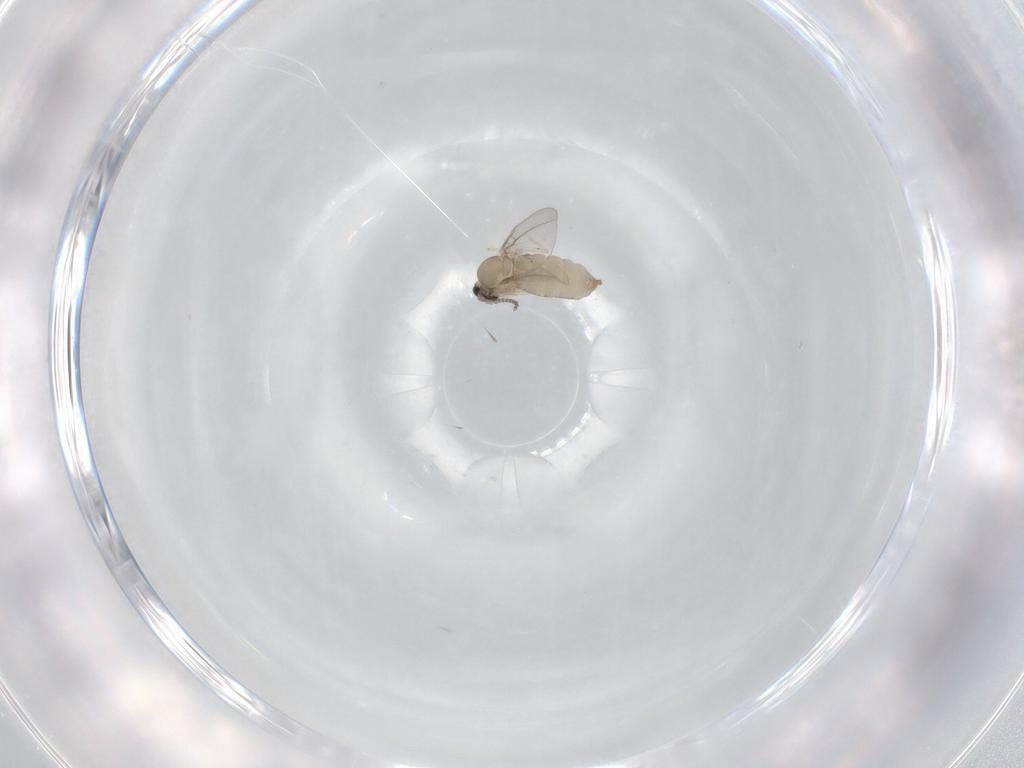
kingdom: Animalia
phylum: Arthropoda
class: Insecta
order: Diptera
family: Cecidomyiidae
